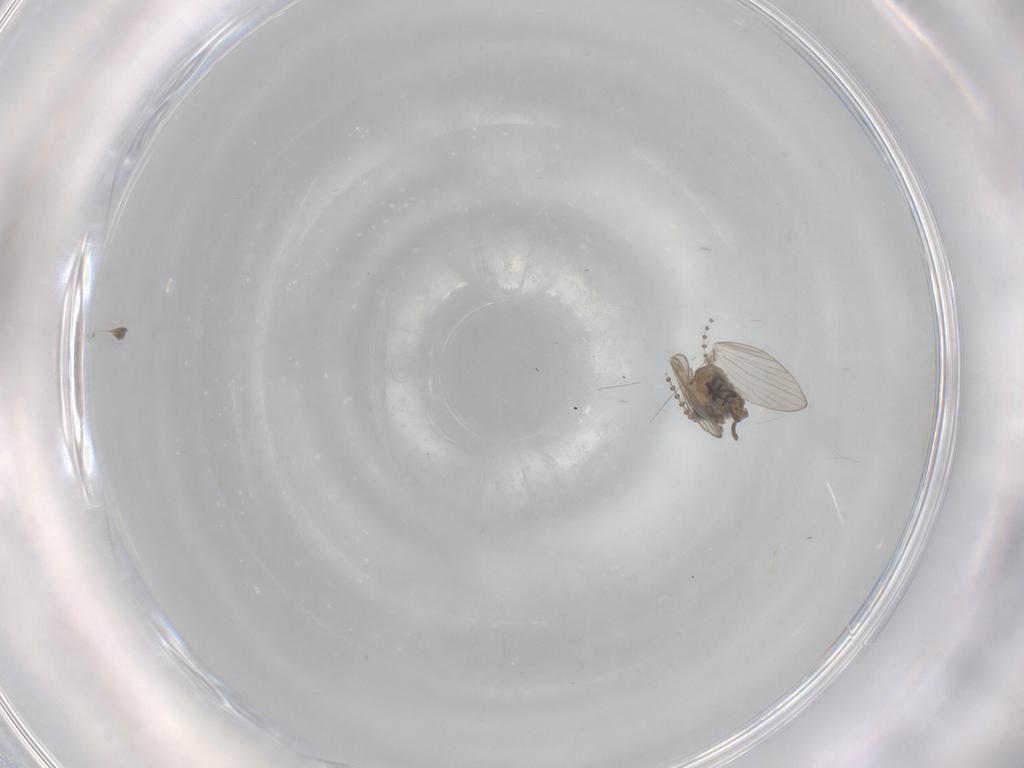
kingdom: Animalia
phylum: Arthropoda
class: Insecta
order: Diptera
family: Psychodidae
